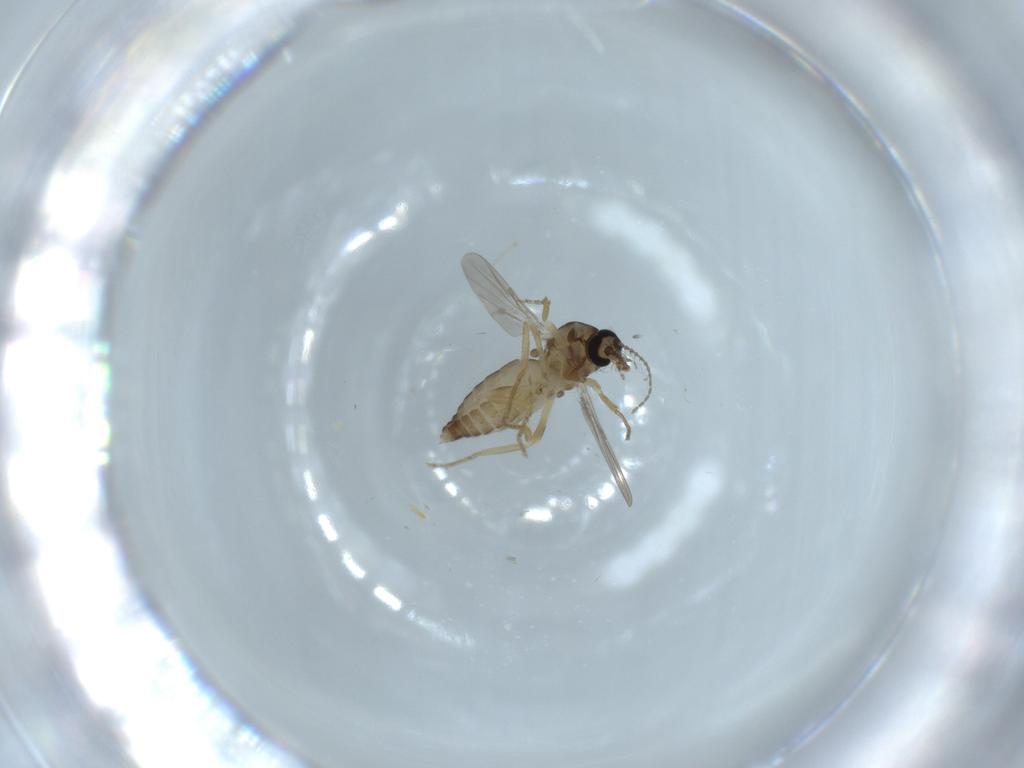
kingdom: Animalia
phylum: Arthropoda
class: Insecta
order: Diptera
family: Ceratopogonidae
